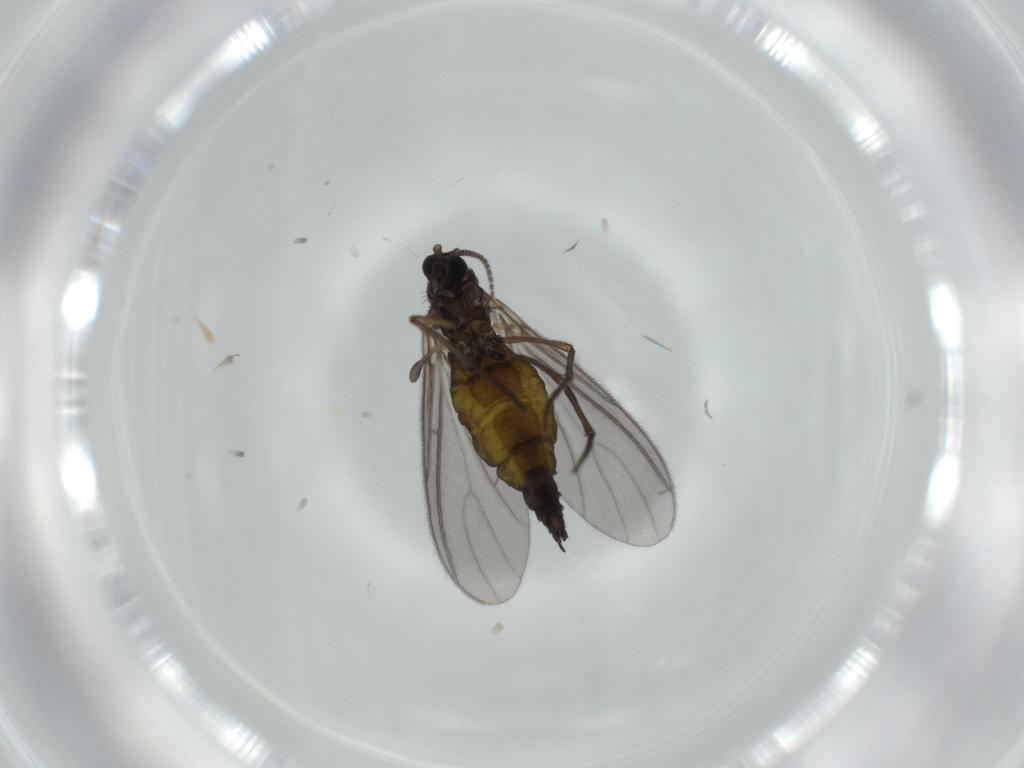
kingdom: Animalia
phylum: Arthropoda
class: Insecta
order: Diptera
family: Sciaridae
